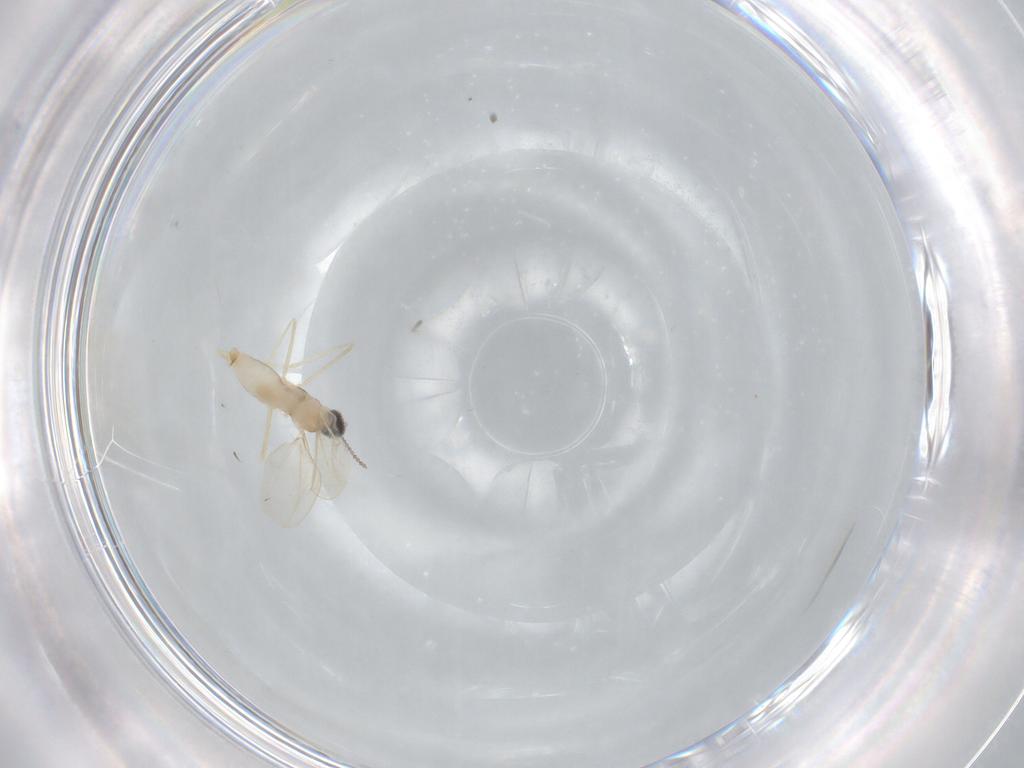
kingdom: Animalia
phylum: Arthropoda
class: Insecta
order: Diptera
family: Cecidomyiidae
